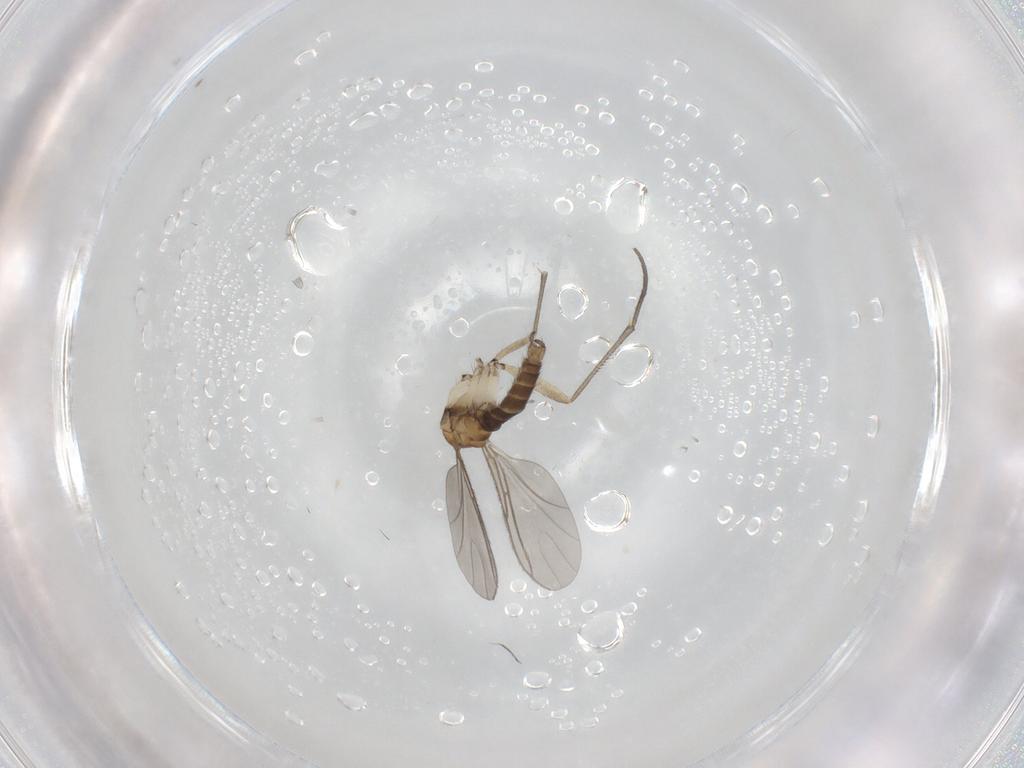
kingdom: Animalia
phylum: Arthropoda
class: Insecta
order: Diptera
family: Sciaridae
